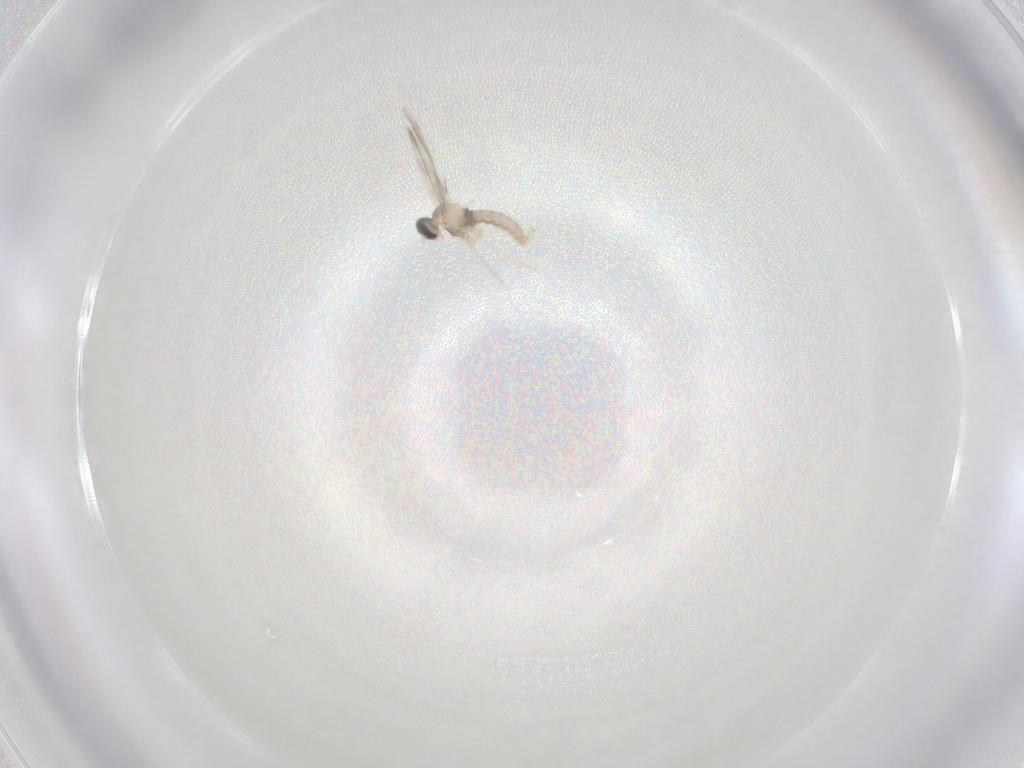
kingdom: Animalia
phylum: Arthropoda
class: Insecta
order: Diptera
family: Cecidomyiidae
